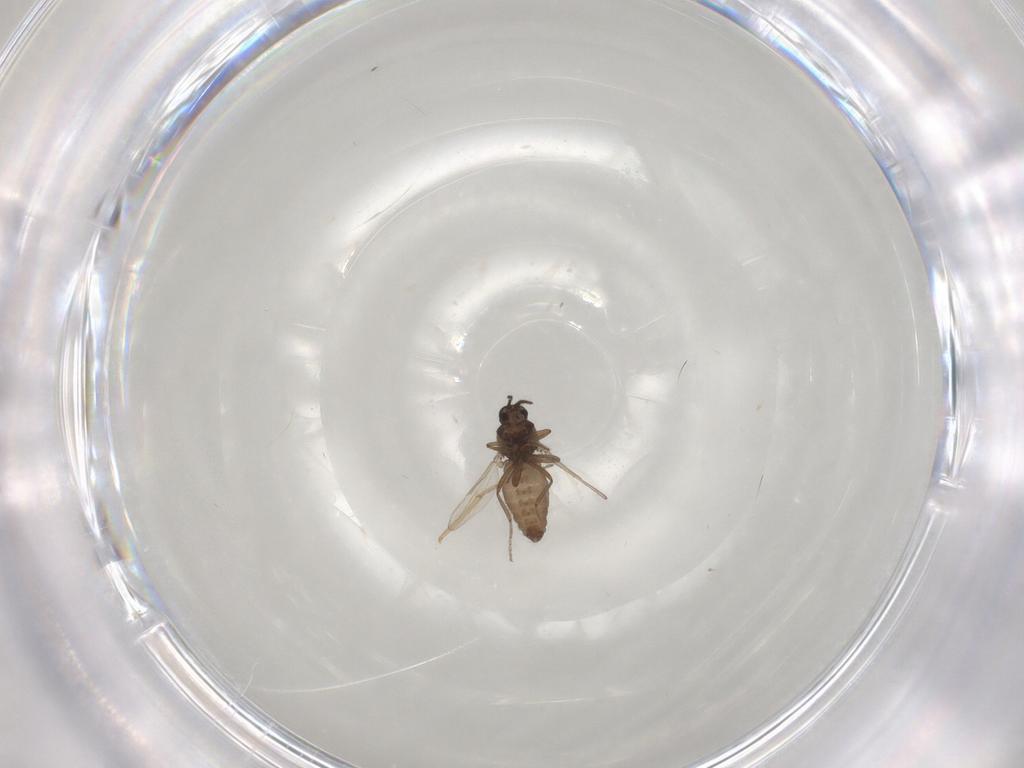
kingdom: Animalia
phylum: Arthropoda
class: Insecta
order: Diptera
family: Ceratopogonidae
